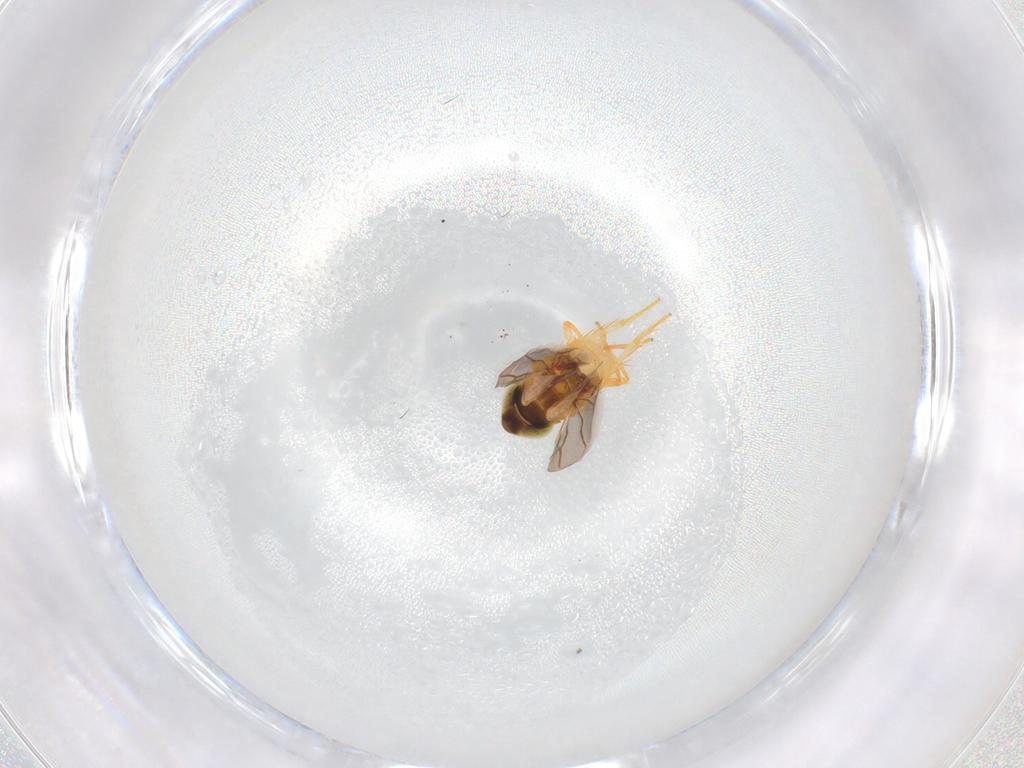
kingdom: Animalia
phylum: Arthropoda
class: Insecta
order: Hemiptera
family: Cicadellidae
